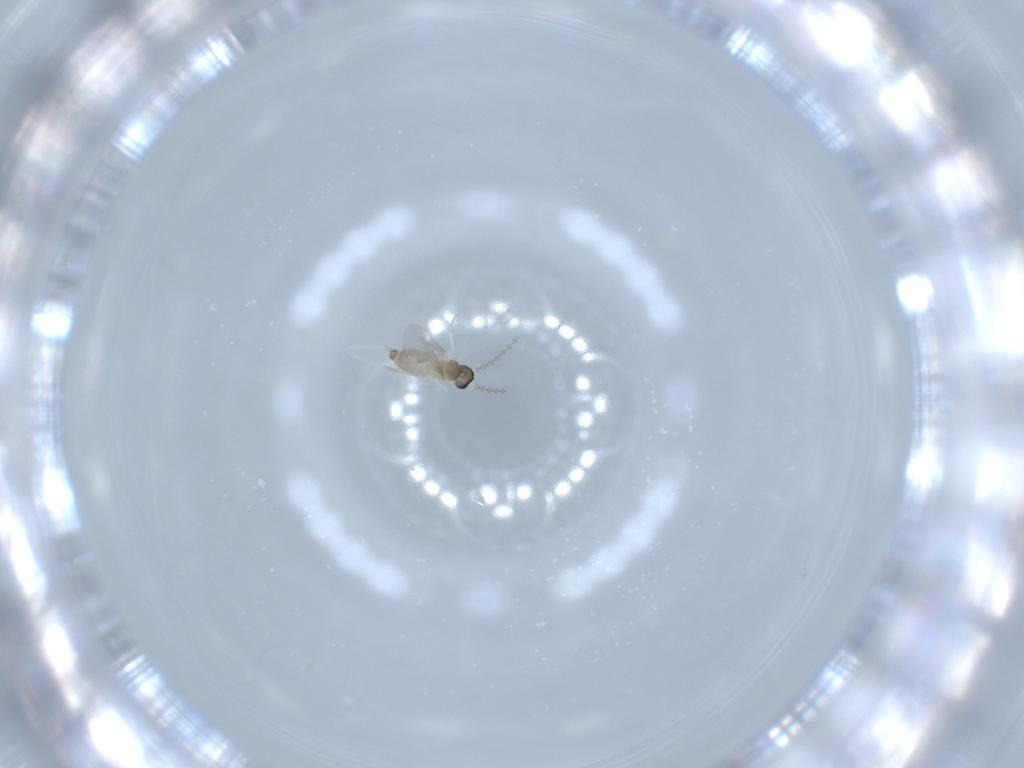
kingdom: Animalia
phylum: Arthropoda
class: Insecta
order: Diptera
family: Cecidomyiidae
